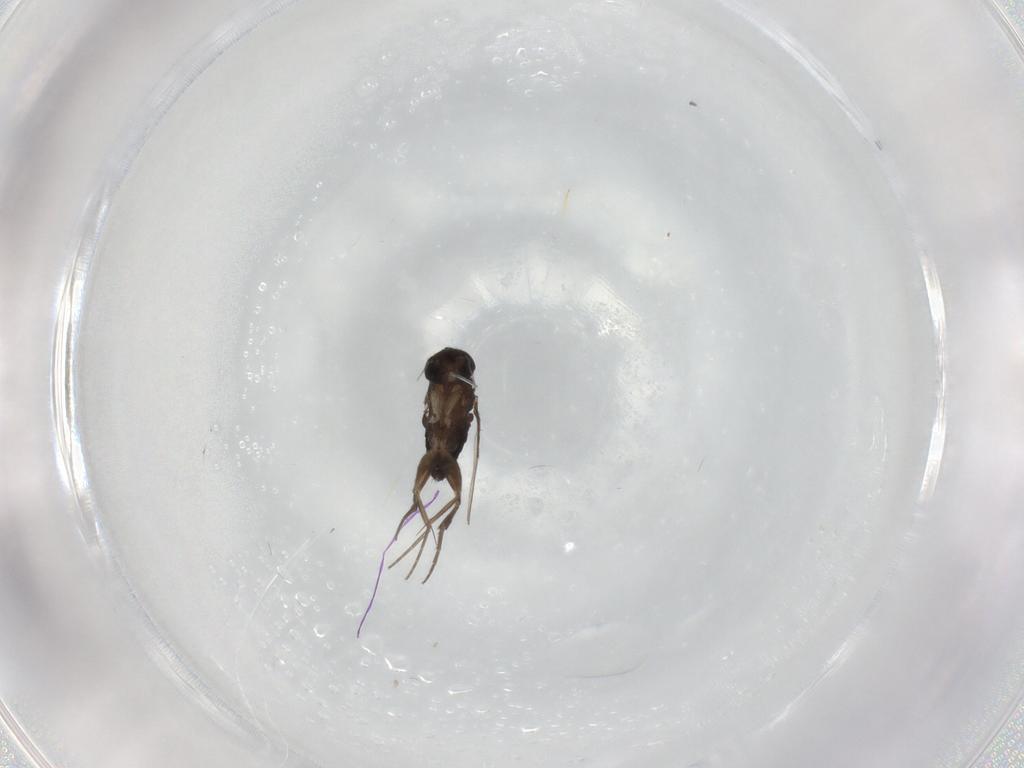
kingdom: Animalia
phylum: Arthropoda
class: Insecta
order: Diptera
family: Phoridae
